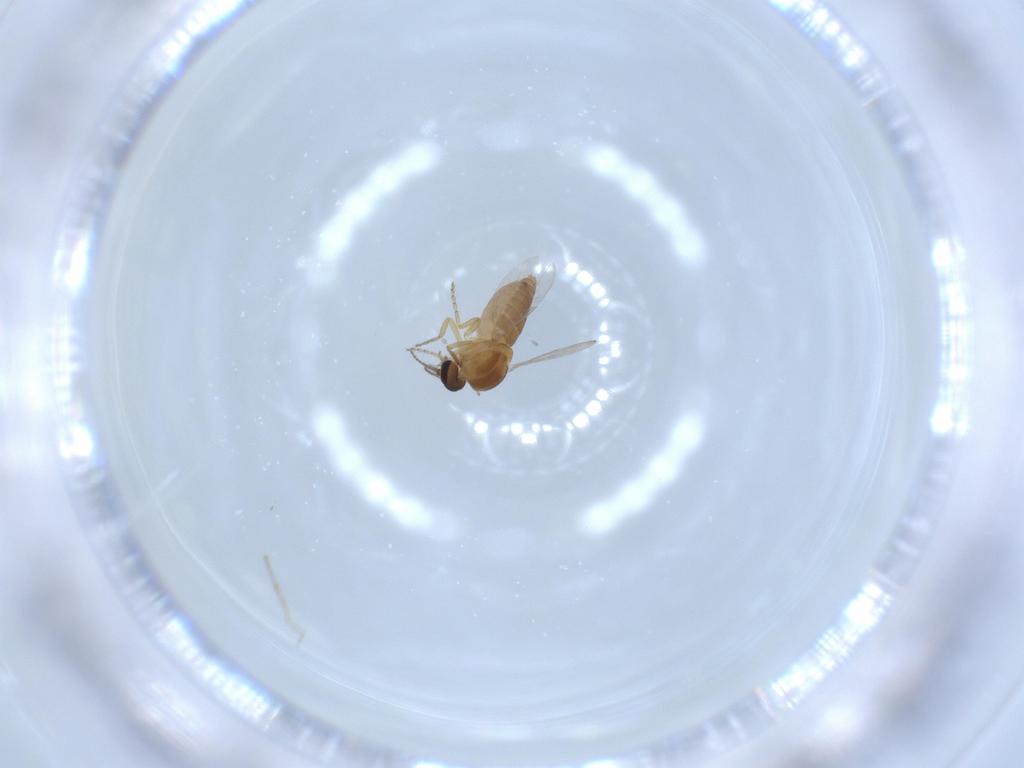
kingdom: Animalia
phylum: Arthropoda
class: Insecta
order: Diptera
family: Ceratopogonidae
